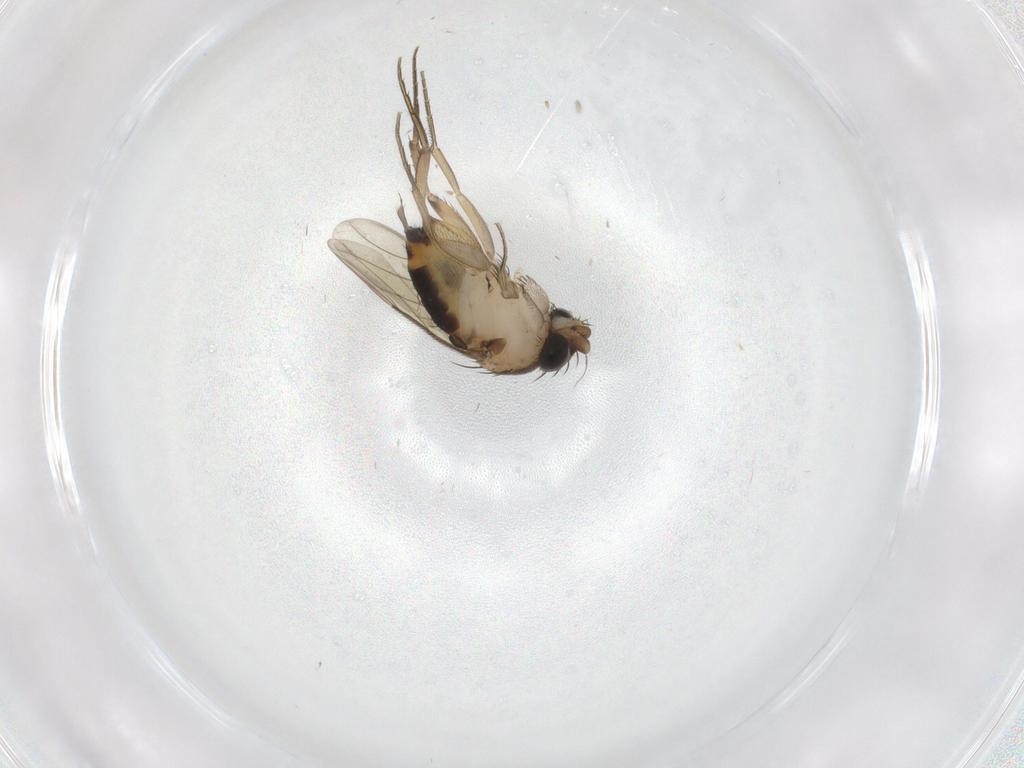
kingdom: Animalia
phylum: Arthropoda
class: Insecta
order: Diptera
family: Phoridae
